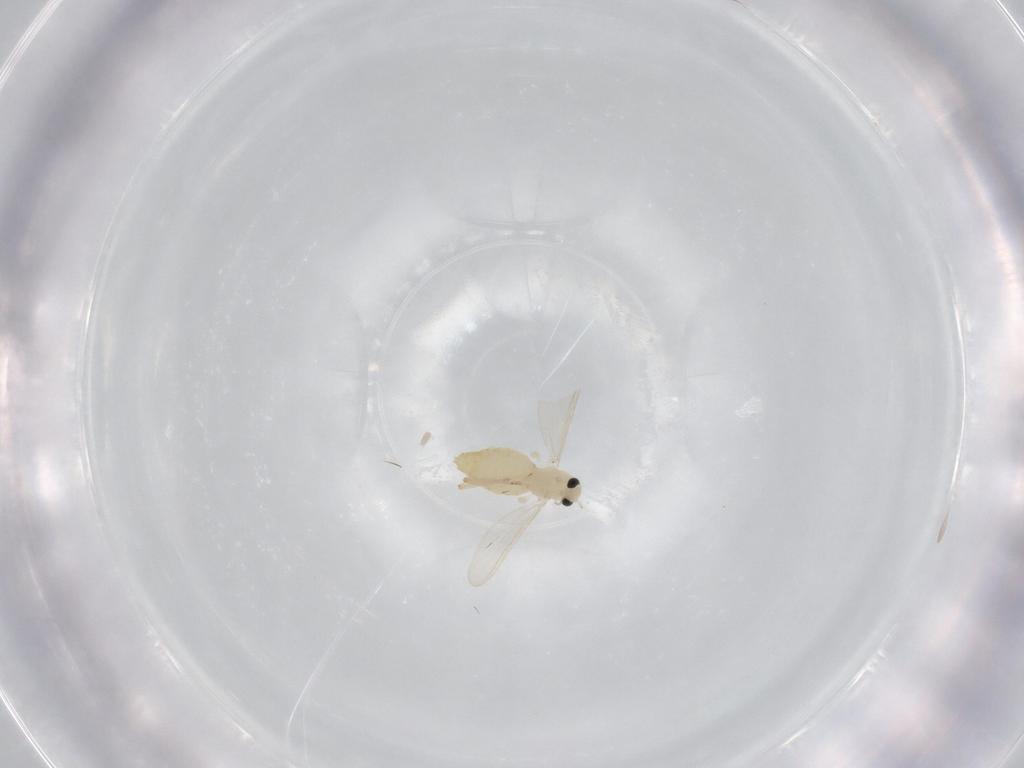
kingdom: Animalia
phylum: Arthropoda
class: Insecta
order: Diptera
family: Chironomidae
